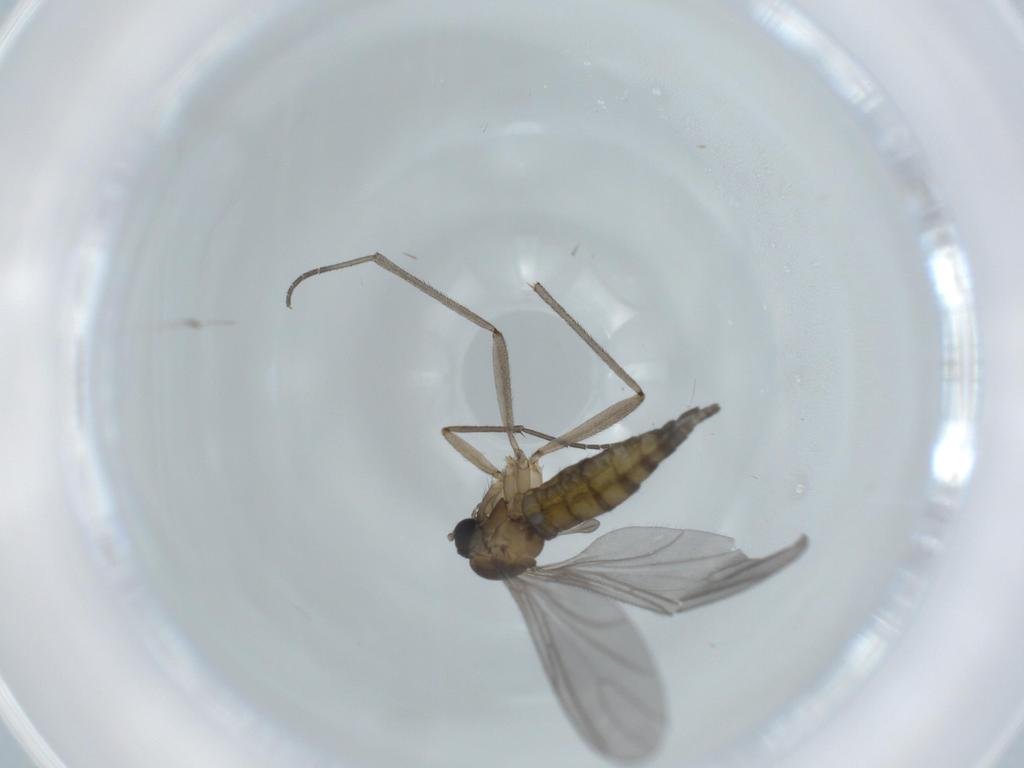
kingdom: Animalia
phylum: Arthropoda
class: Insecta
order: Diptera
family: Sciaridae
